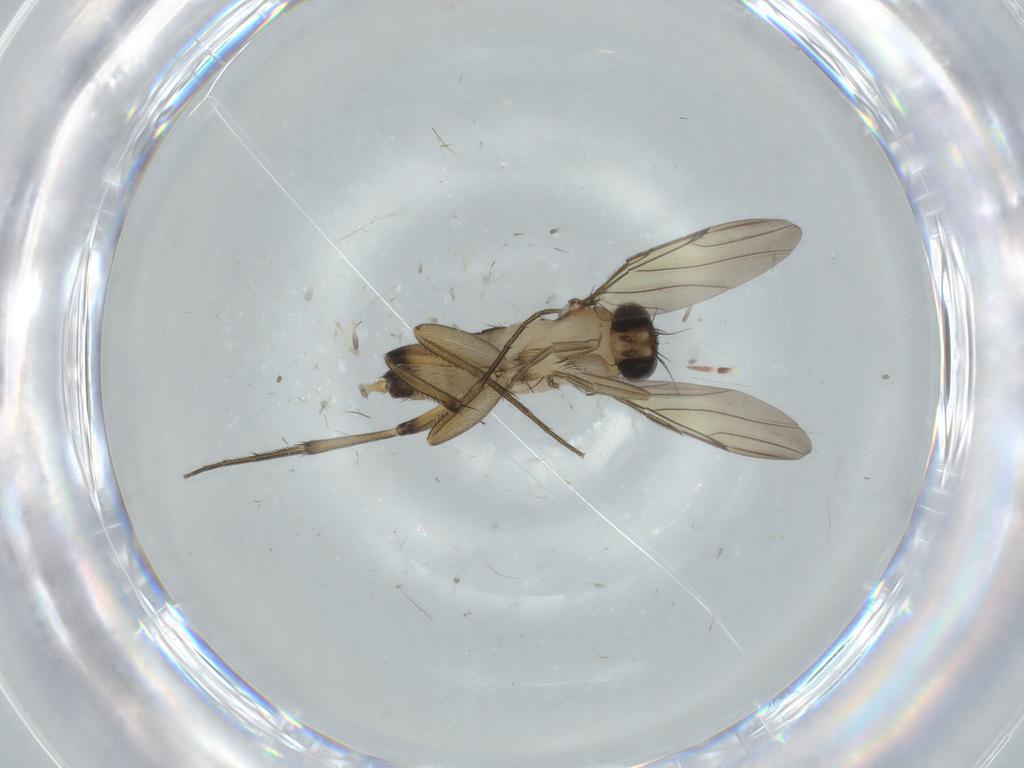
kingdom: Animalia
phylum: Arthropoda
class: Insecta
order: Diptera
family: Phoridae
